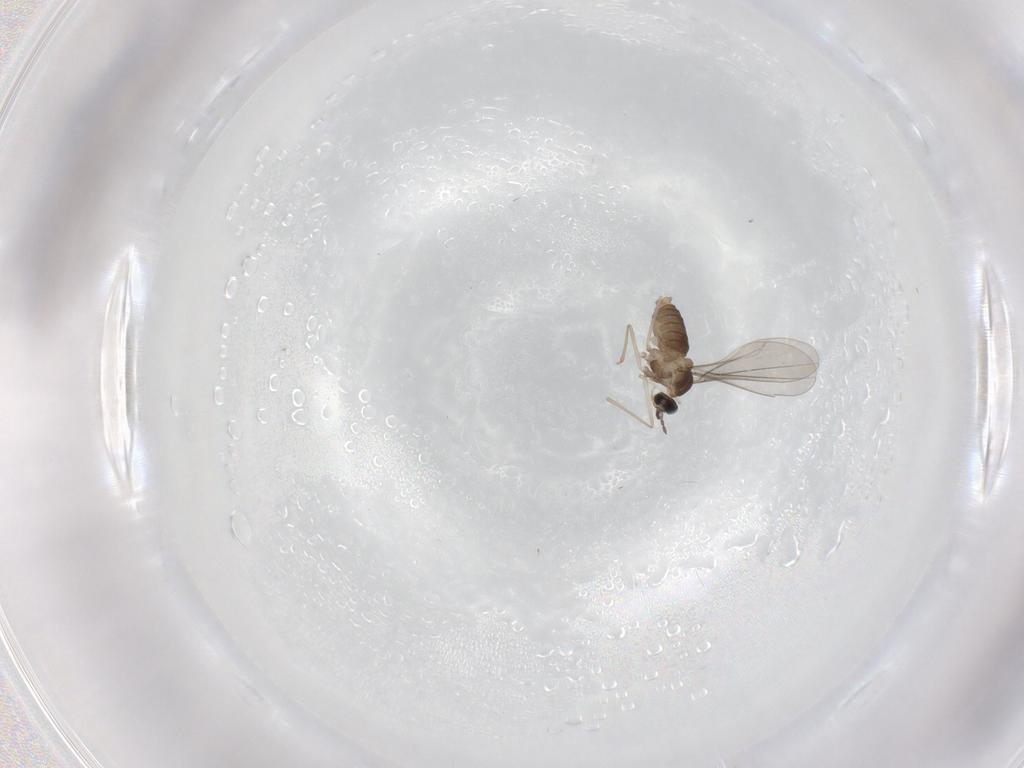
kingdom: Animalia
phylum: Arthropoda
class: Insecta
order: Diptera
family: Cecidomyiidae
